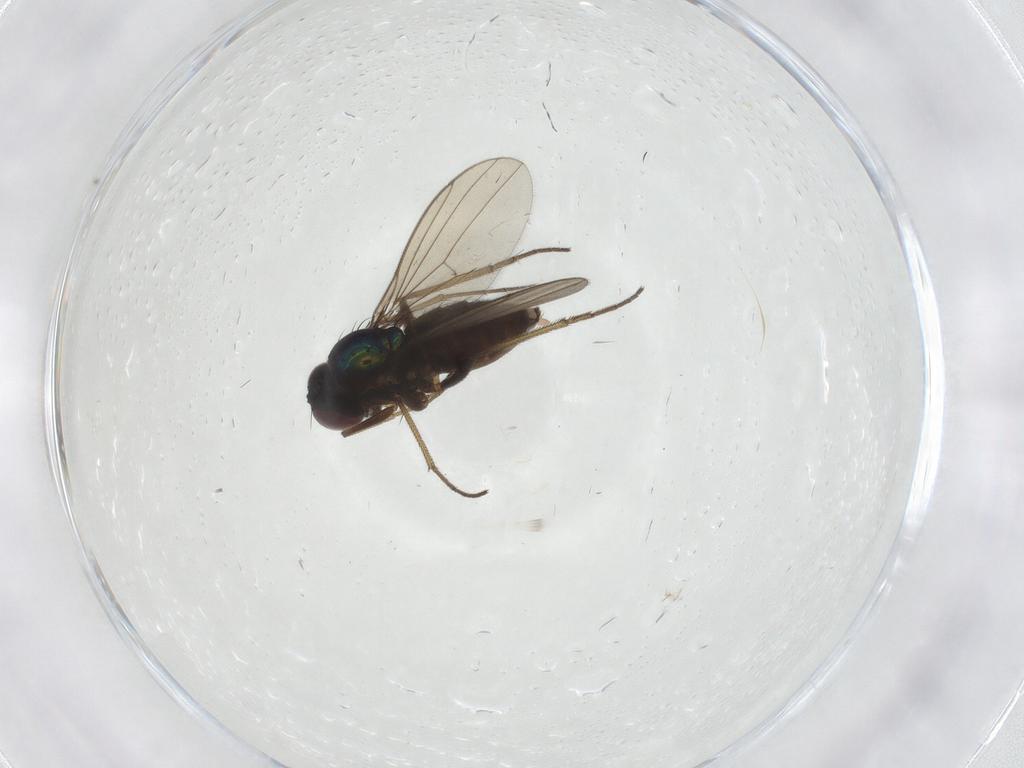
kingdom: Animalia
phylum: Arthropoda
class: Insecta
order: Diptera
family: Dolichopodidae
